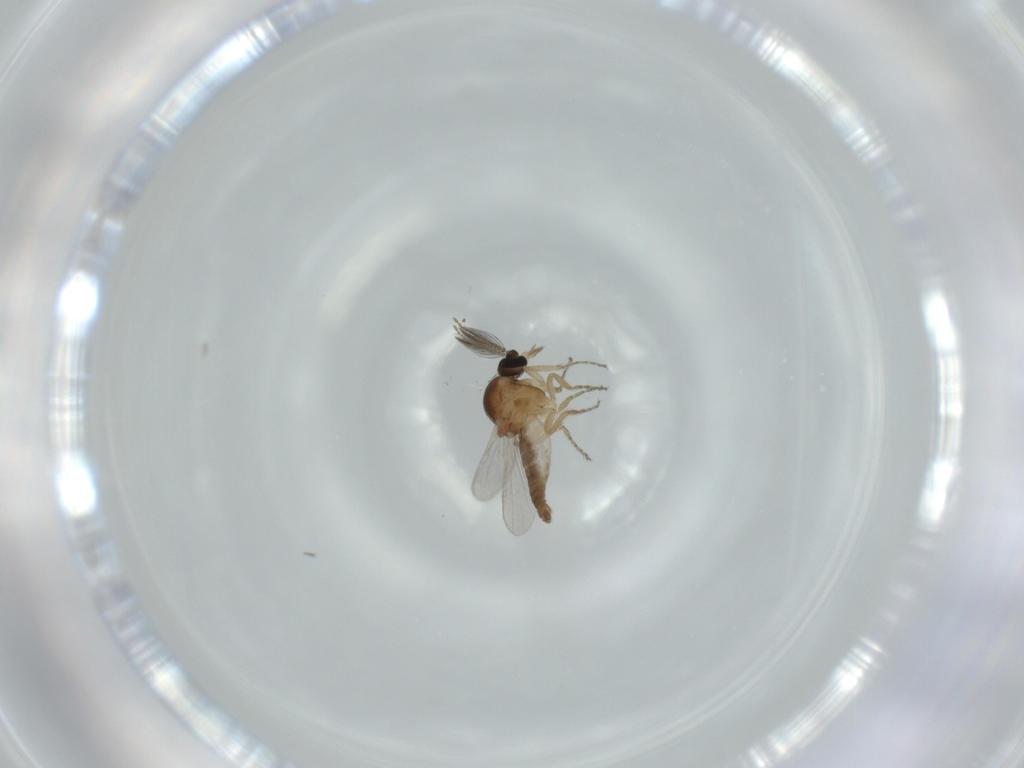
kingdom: Animalia
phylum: Arthropoda
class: Insecta
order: Diptera
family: Ceratopogonidae
